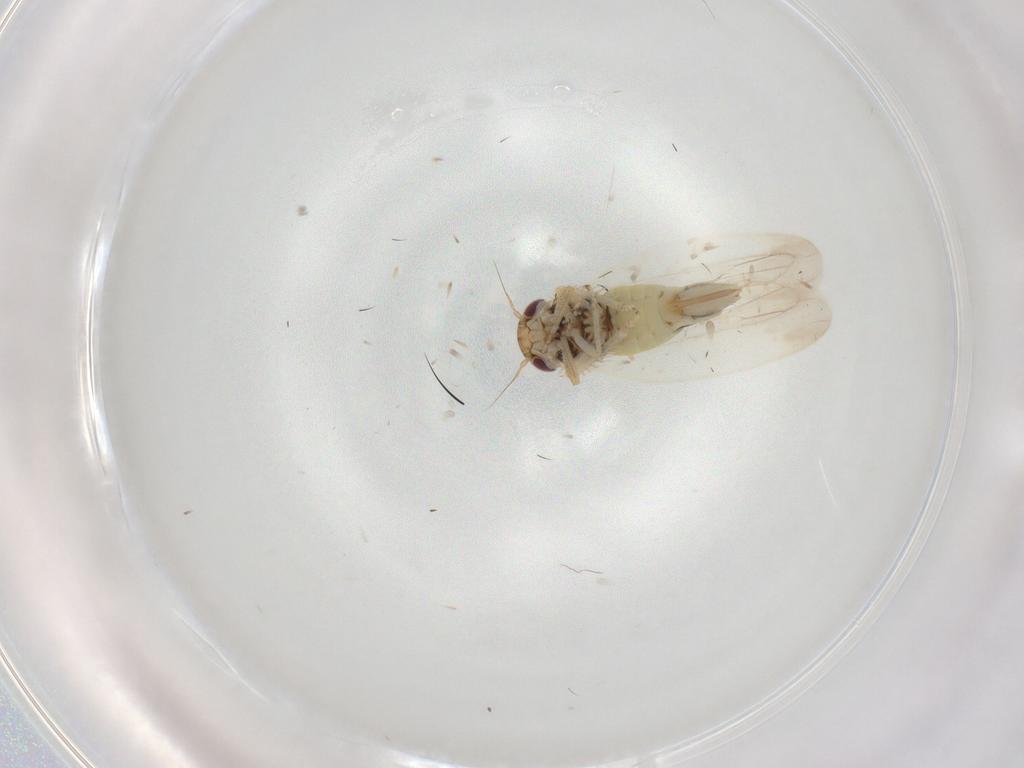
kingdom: Animalia
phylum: Arthropoda
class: Insecta
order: Hemiptera
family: Cicadellidae
